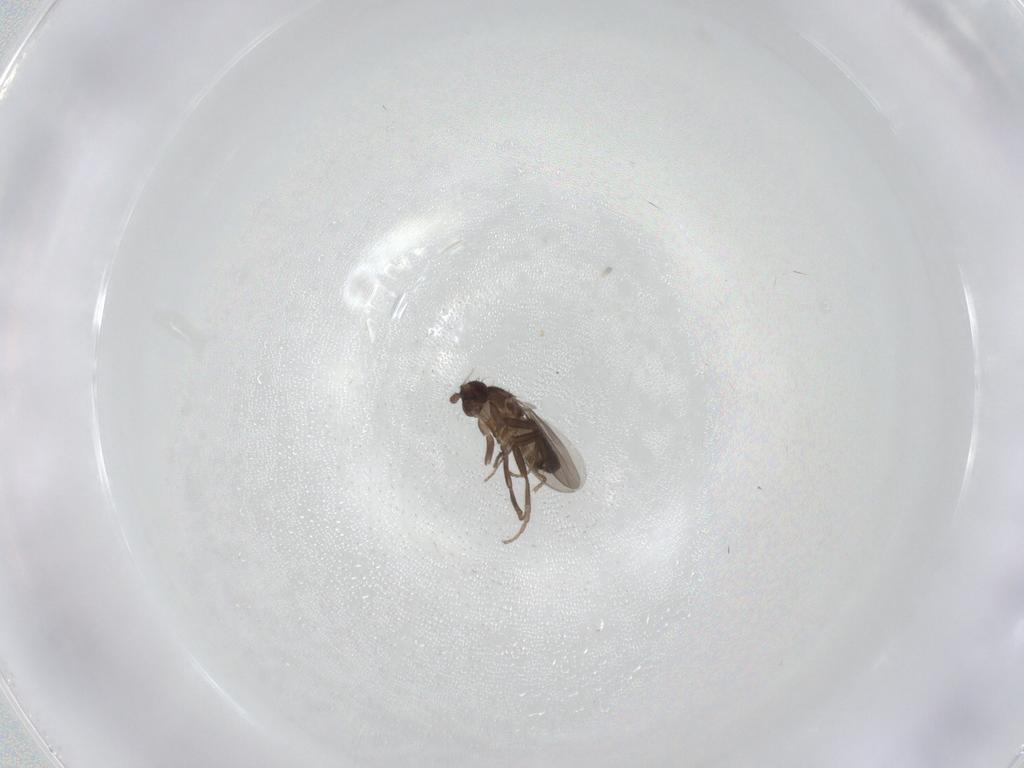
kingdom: Animalia
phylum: Arthropoda
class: Insecta
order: Diptera
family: Sphaeroceridae
